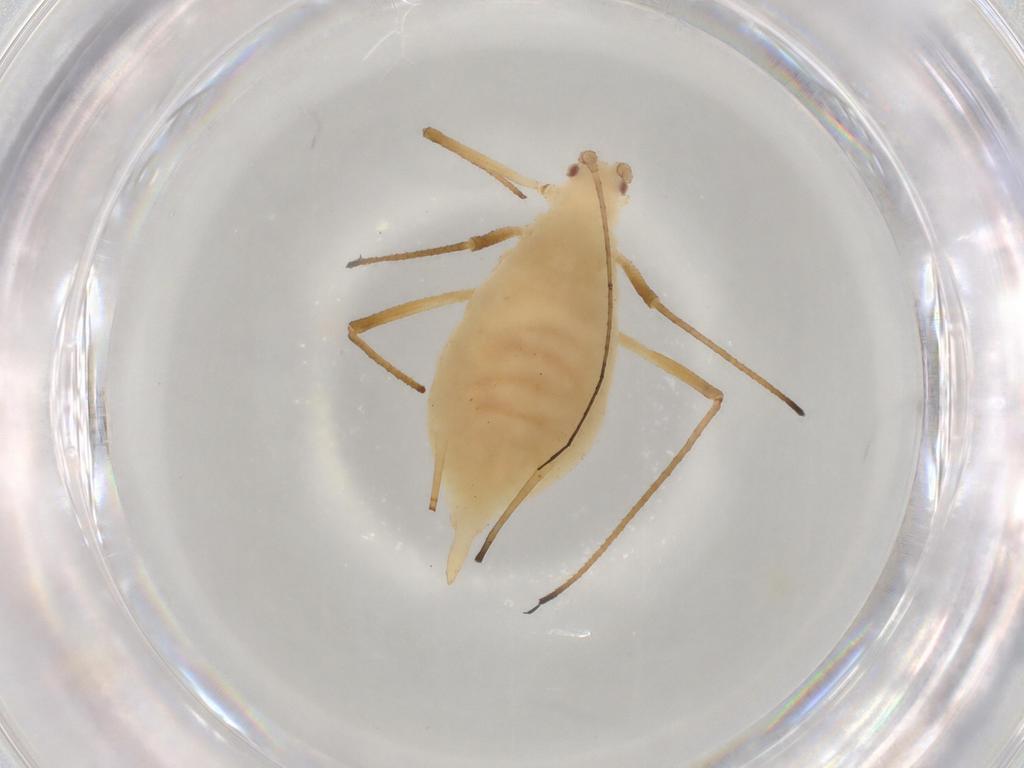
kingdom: Animalia
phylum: Arthropoda
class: Insecta
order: Hemiptera
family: Aphididae
